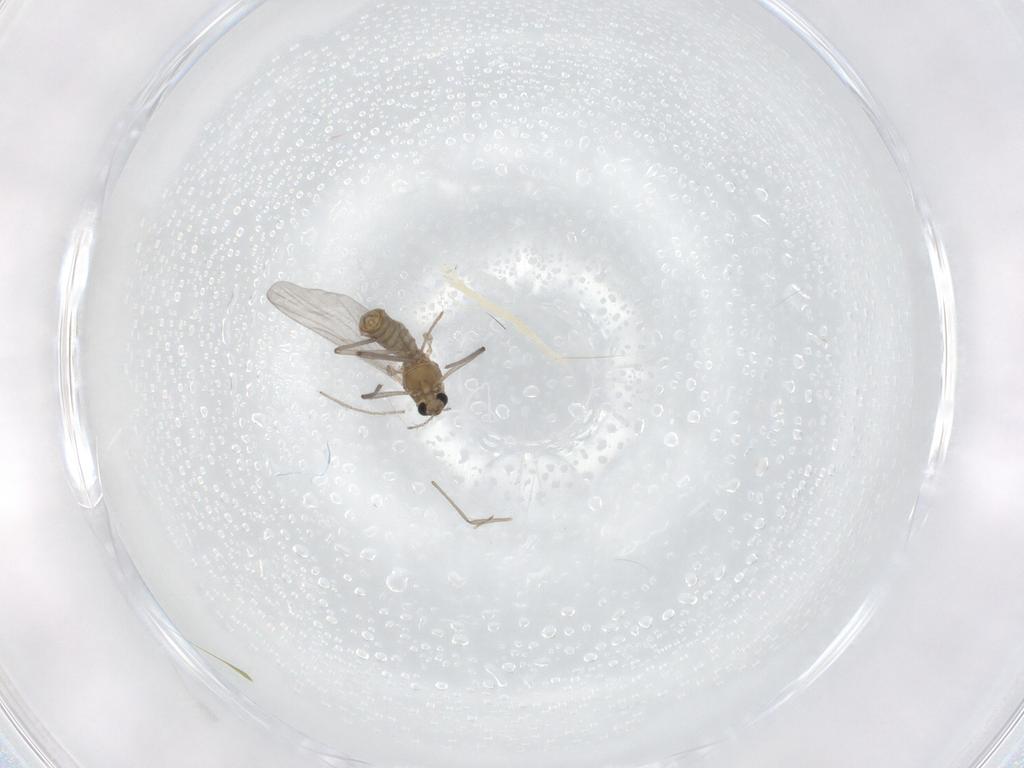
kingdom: Animalia
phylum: Arthropoda
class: Insecta
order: Diptera
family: Chironomidae
